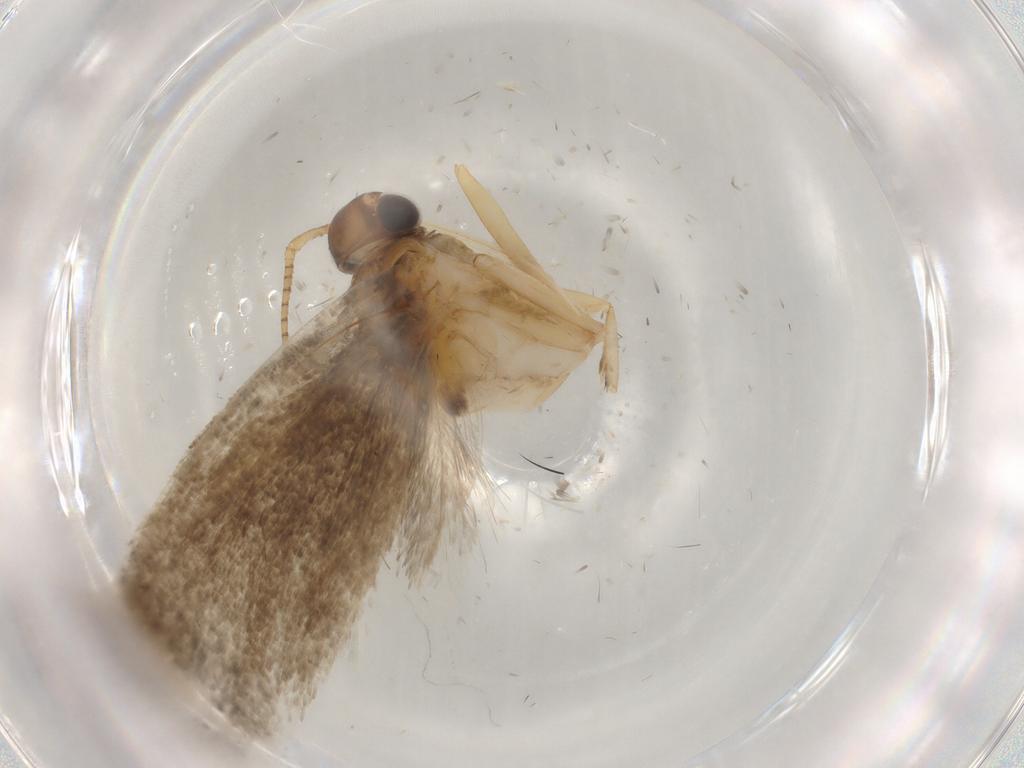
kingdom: Animalia
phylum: Arthropoda
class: Insecta
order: Lepidoptera
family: Gelechiidae
